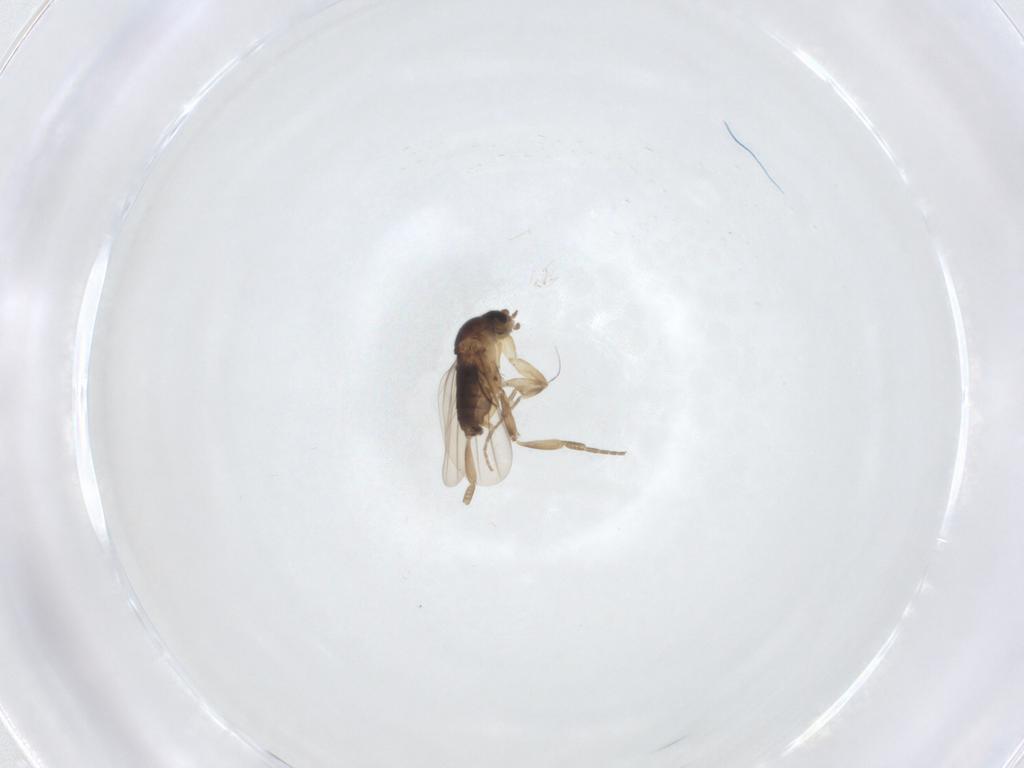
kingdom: Animalia
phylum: Arthropoda
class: Insecta
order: Diptera
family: Phoridae
